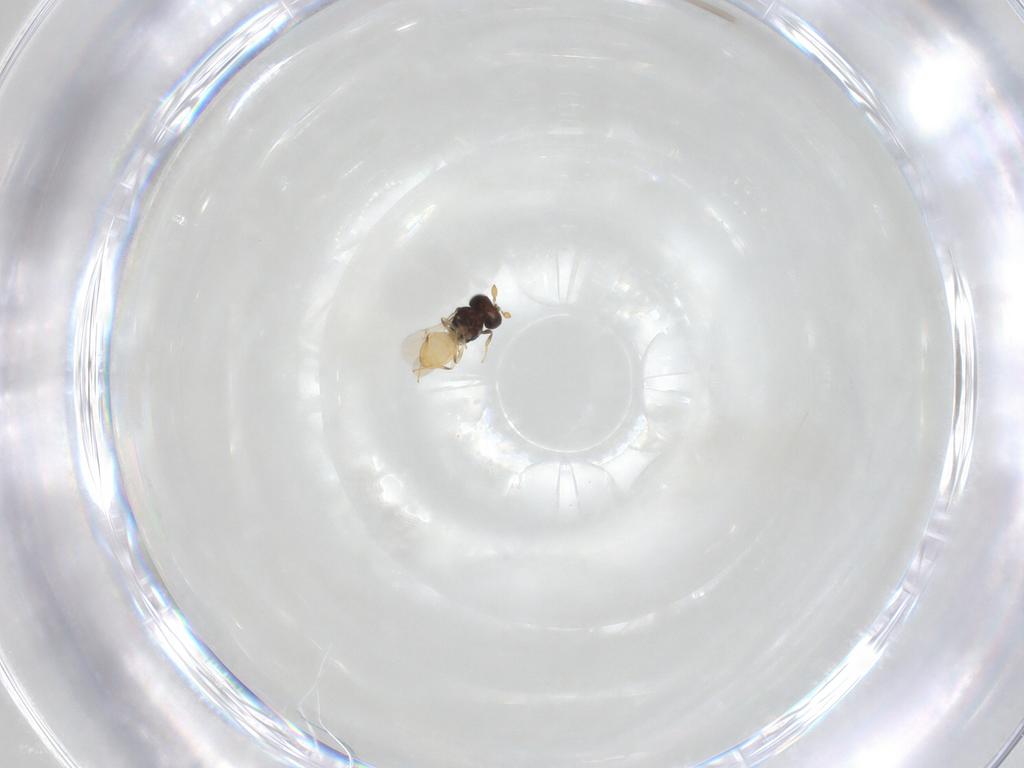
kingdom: Animalia
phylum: Arthropoda
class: Insecta
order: Hymenoptera
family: Scelionidae
